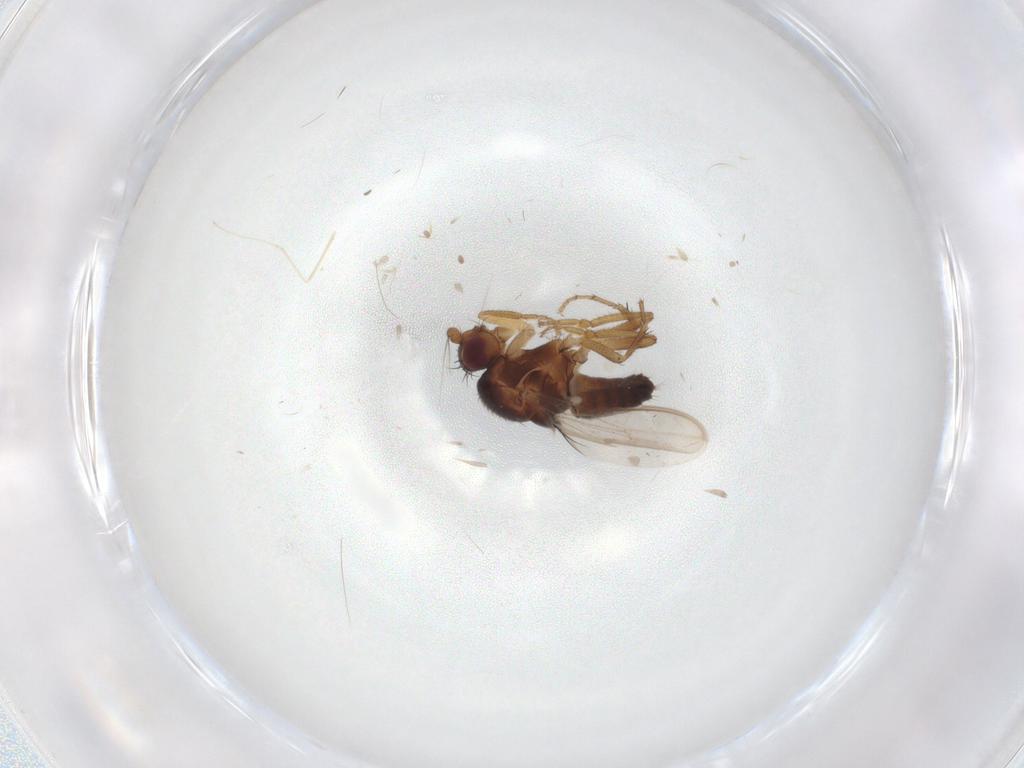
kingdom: Animalia
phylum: Arthropoda
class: Insecta
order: Diptera
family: Sphaeroceridae
